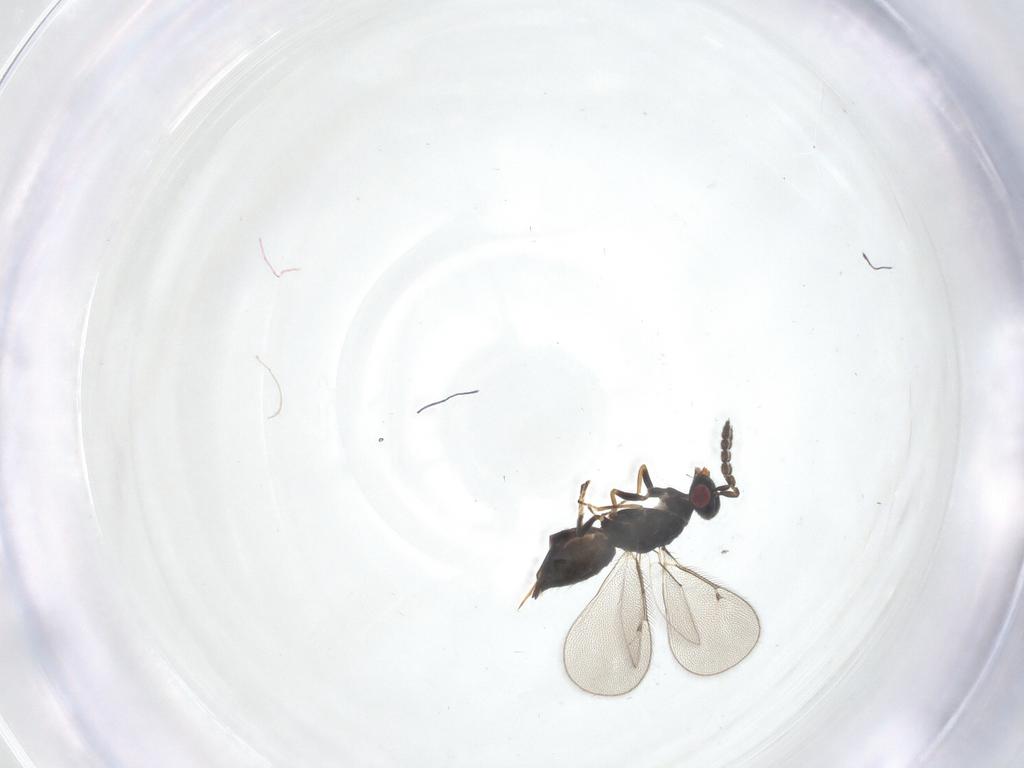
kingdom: Animalia
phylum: Arthropoda
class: Insecta
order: Hymenoptera
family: Eulophidae
